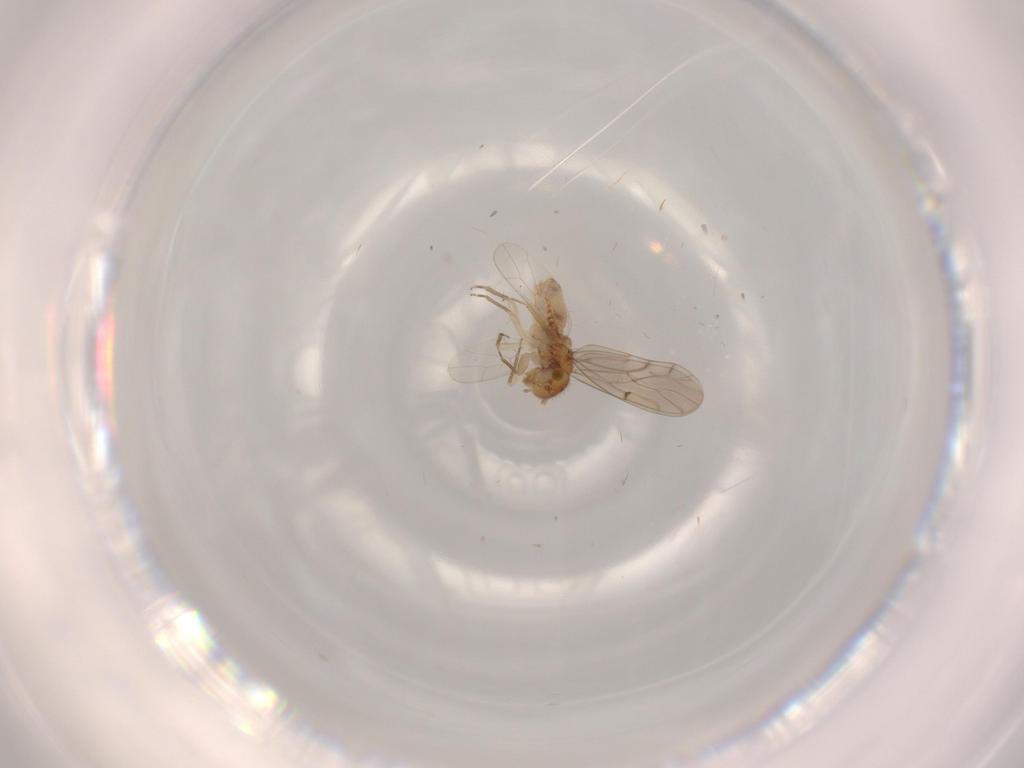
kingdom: Animalia
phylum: Arthropoda
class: Insecta
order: Psocodea
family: Ectopsocidae
